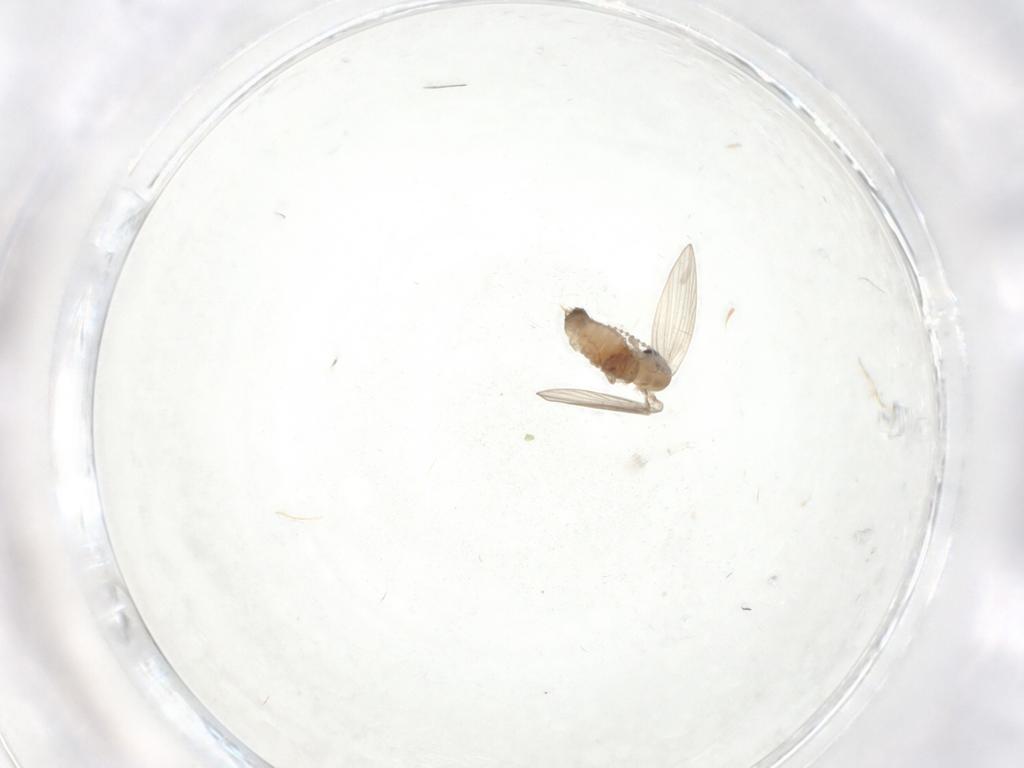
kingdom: Animalia
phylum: Arthropoda
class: Insecta
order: Diptera
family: Psychodidae
